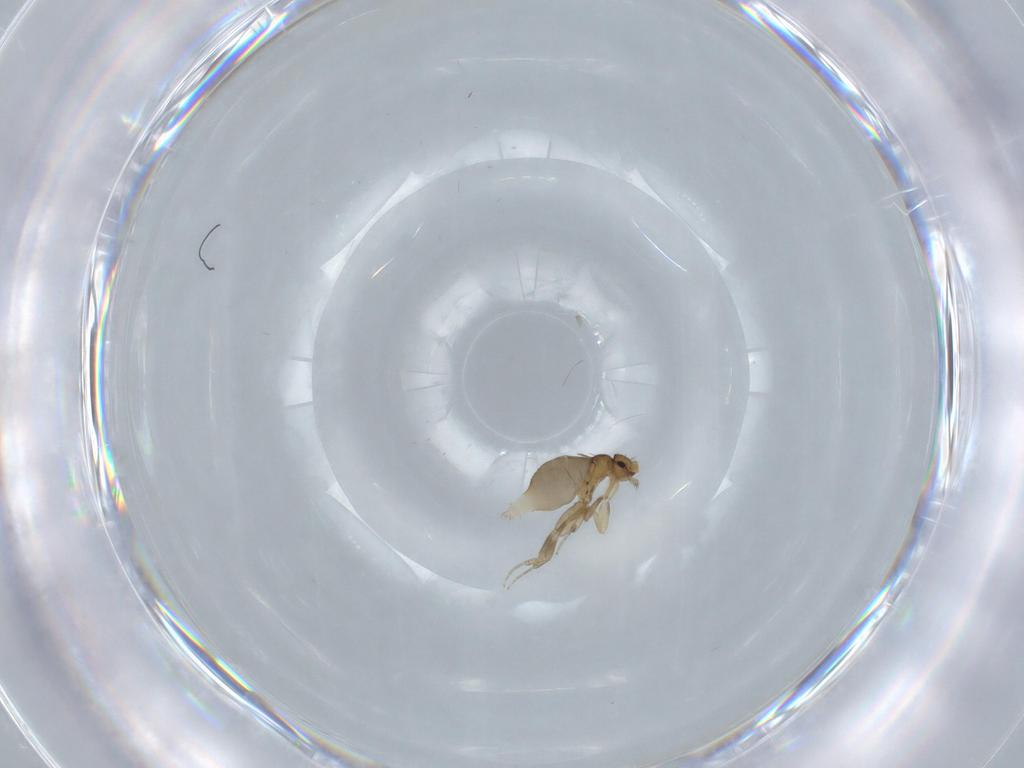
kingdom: Animalia
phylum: Arthropoda
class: Insecta
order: Diptera
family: Phoridae
